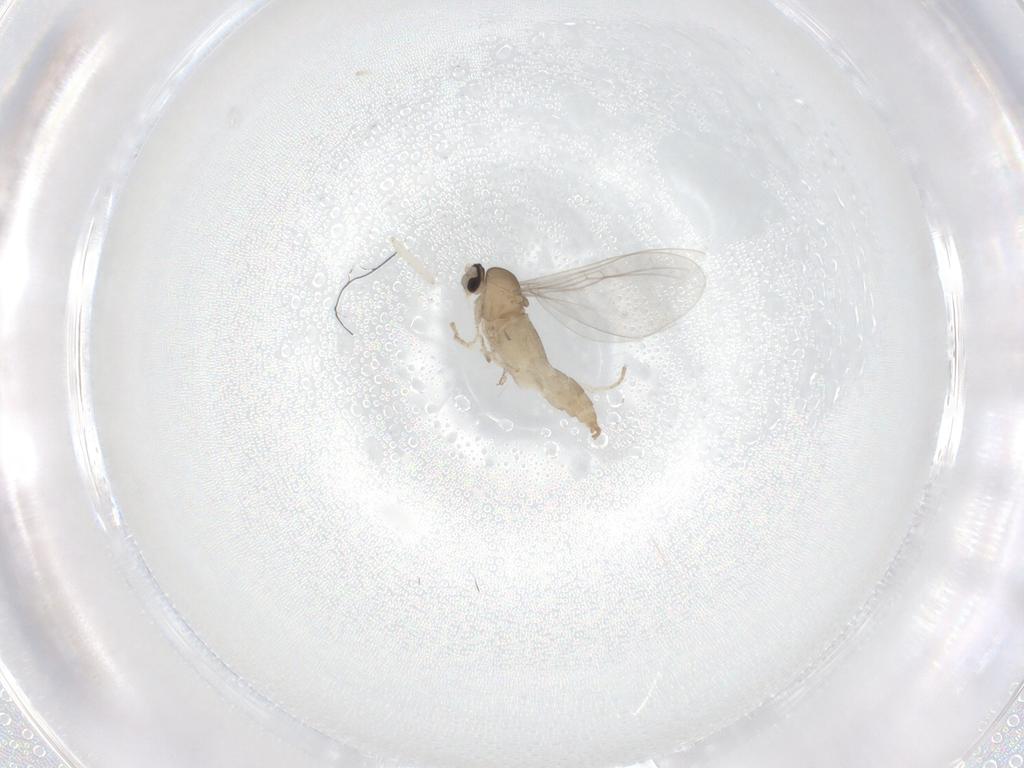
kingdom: Animalia
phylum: Arthropoda
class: Insecta
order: Diptera
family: Cecidomyiidae
